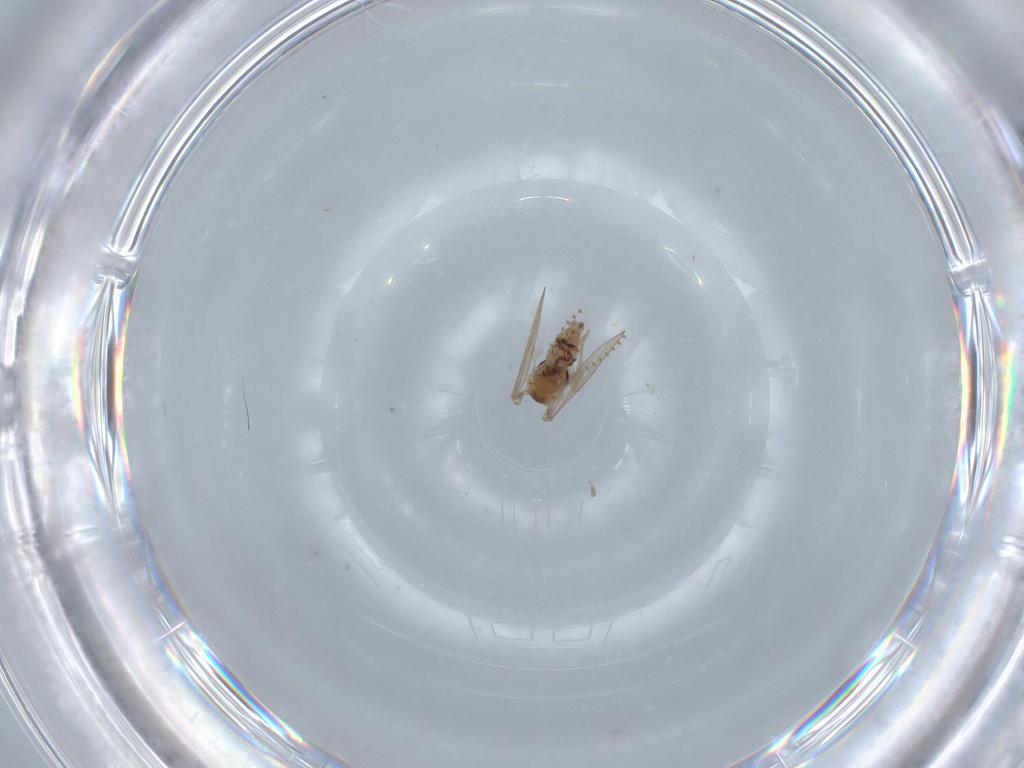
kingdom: Animalia
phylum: Arthropoda
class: Insecta
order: Diptera
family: Psychodidae
